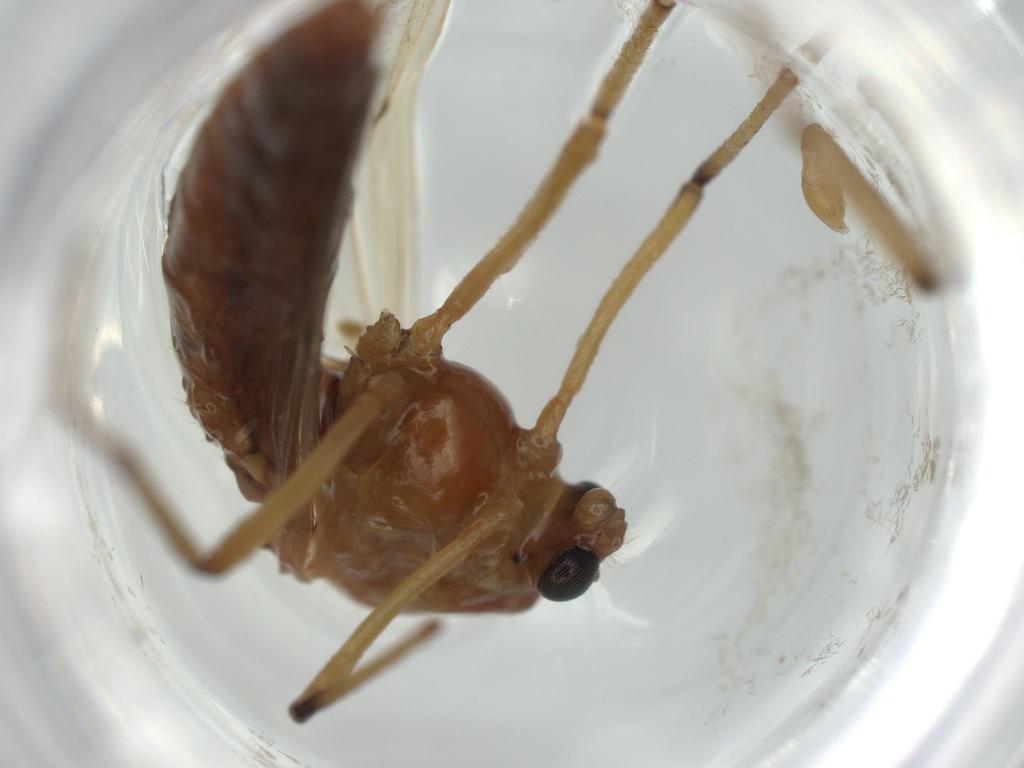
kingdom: Animalia
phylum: Arthropoda
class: Insecta
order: Diptera
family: Chironomidae
